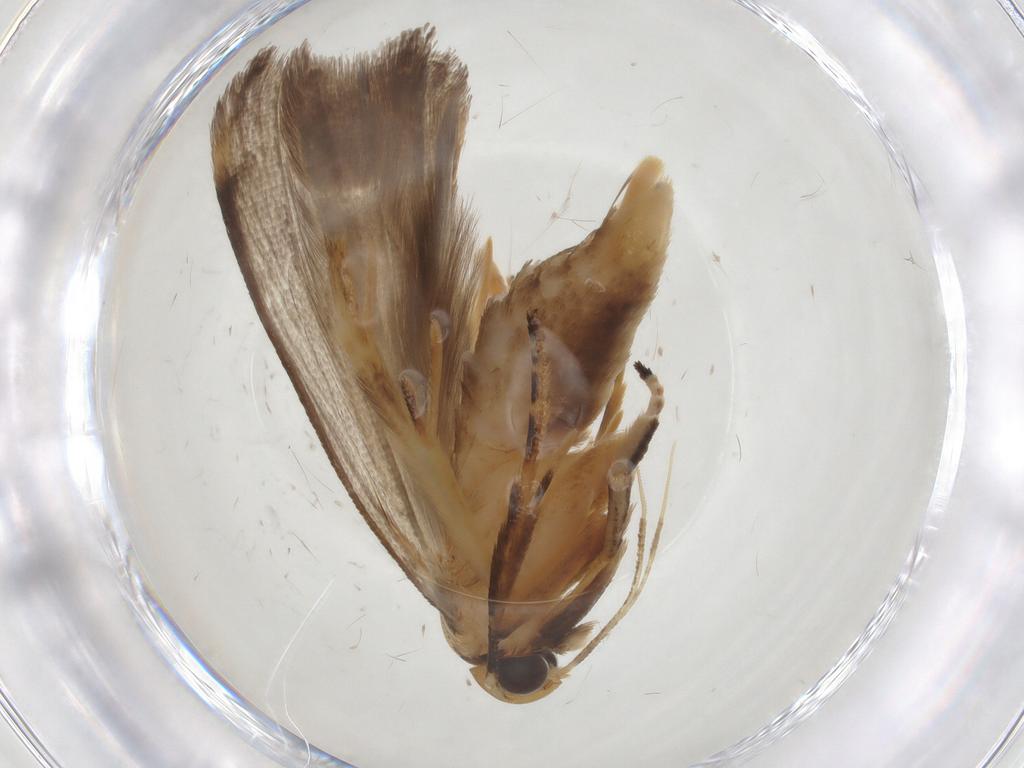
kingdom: Animalia
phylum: Arthropoda
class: Insecta
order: Lepidoptera
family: Gelechiidae
